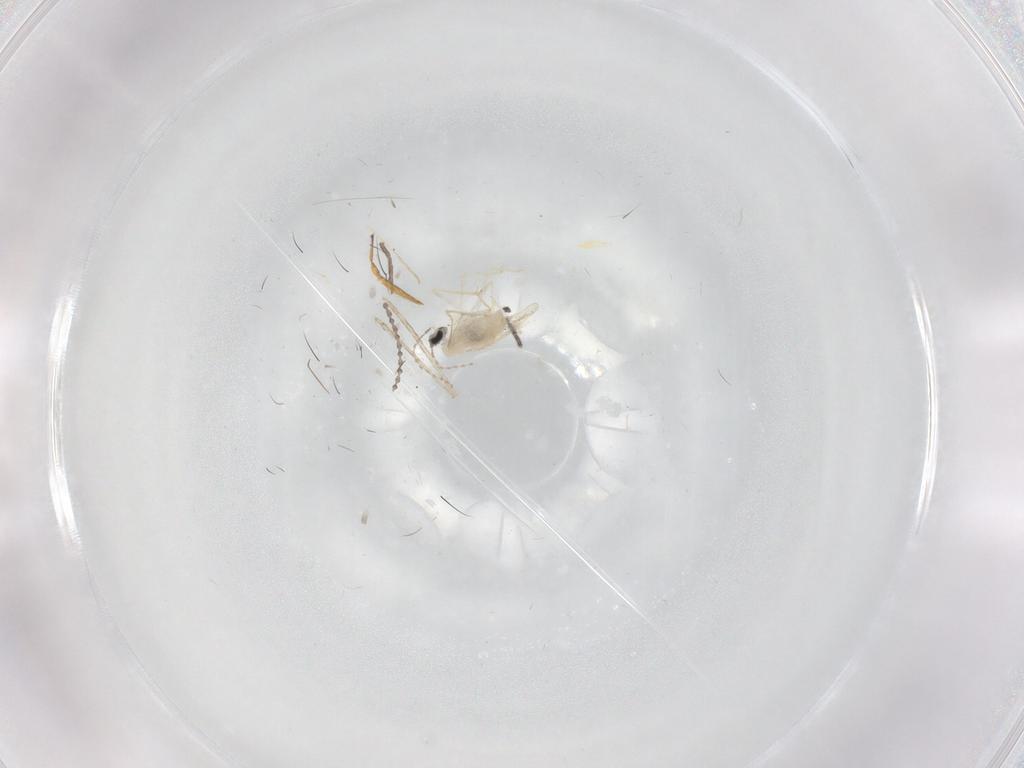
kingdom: Animalia
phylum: Arthropoda
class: Insecta
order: Diptera
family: Cecidomyiidae
